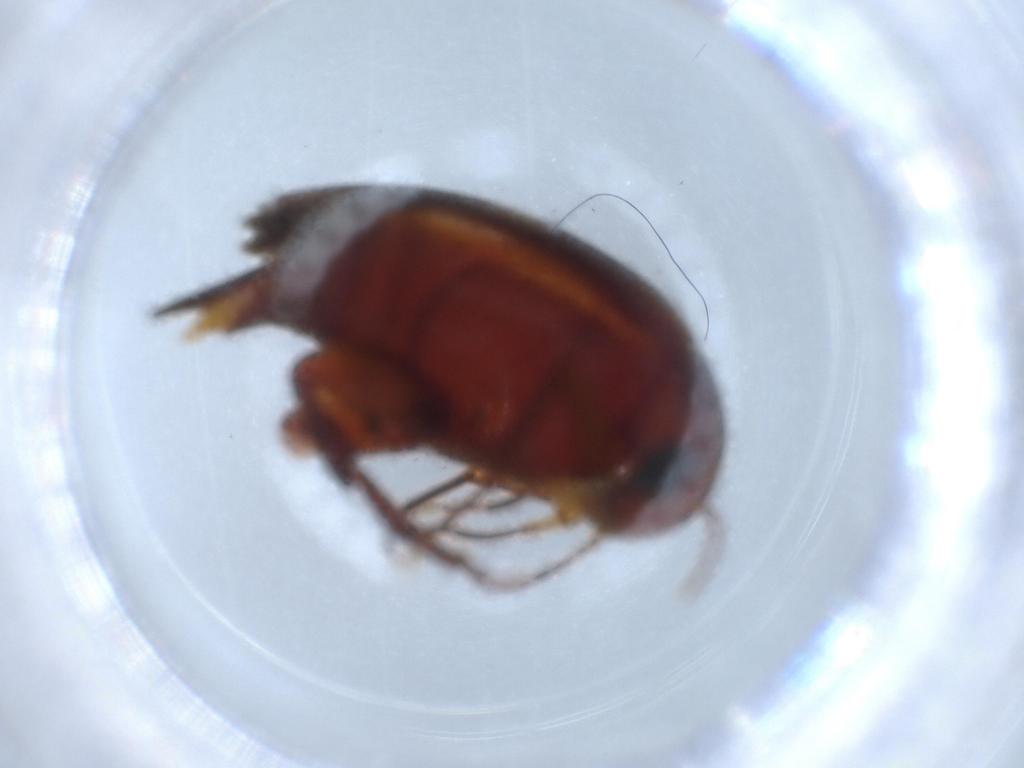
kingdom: Animalia
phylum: Arthropoda
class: Insecta
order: Coleoptera
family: Mordellidae
